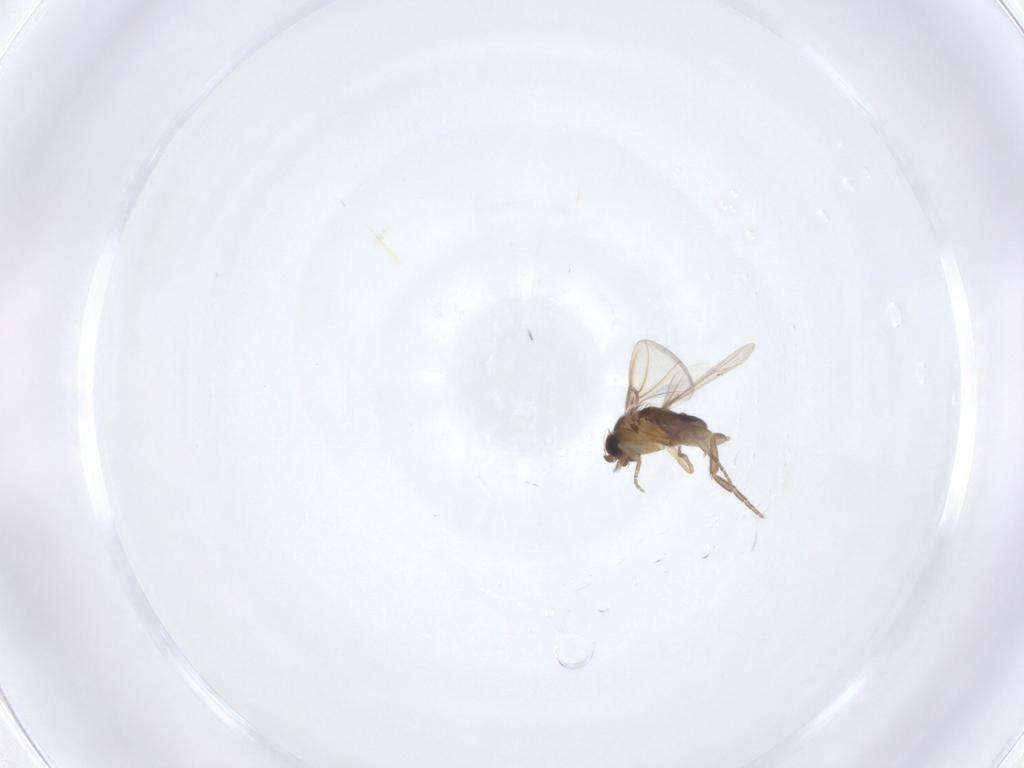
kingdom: Animalia
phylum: Arthropoda
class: Insecta
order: Diptera
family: Phoridae
